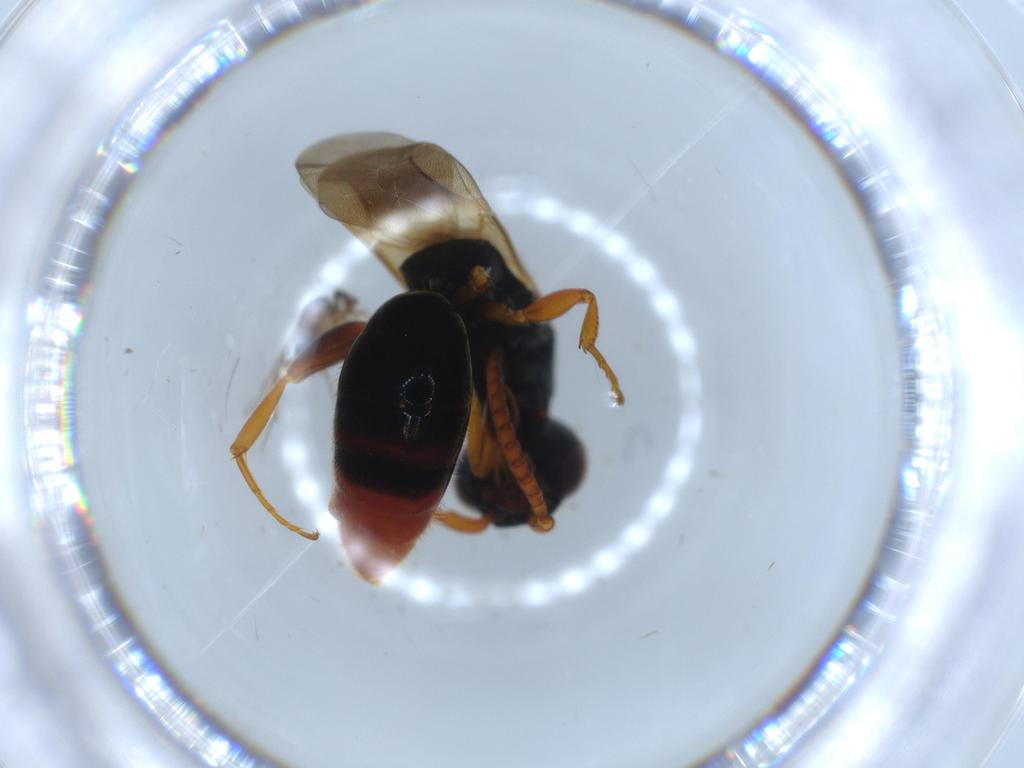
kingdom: Animalia
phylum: Arthropoda
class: Insecta
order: Hymenoptera
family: Scelionidae
